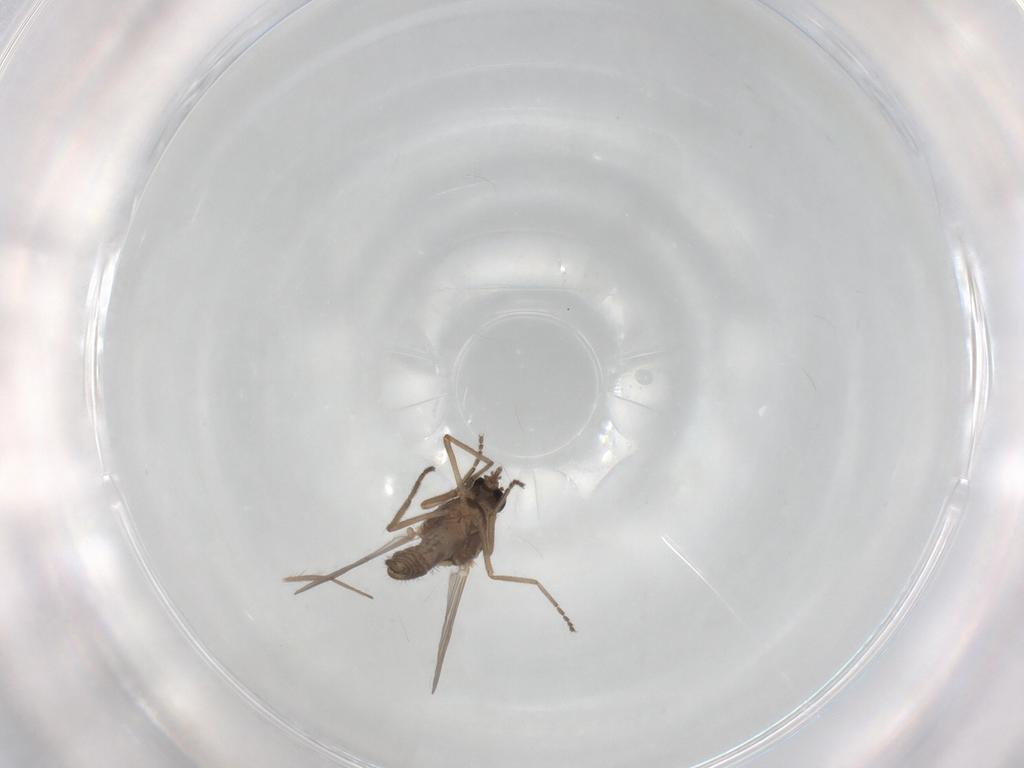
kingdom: Animalia
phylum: Arthropoda
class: Insecta
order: Diptera
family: Ceratopogonidae
